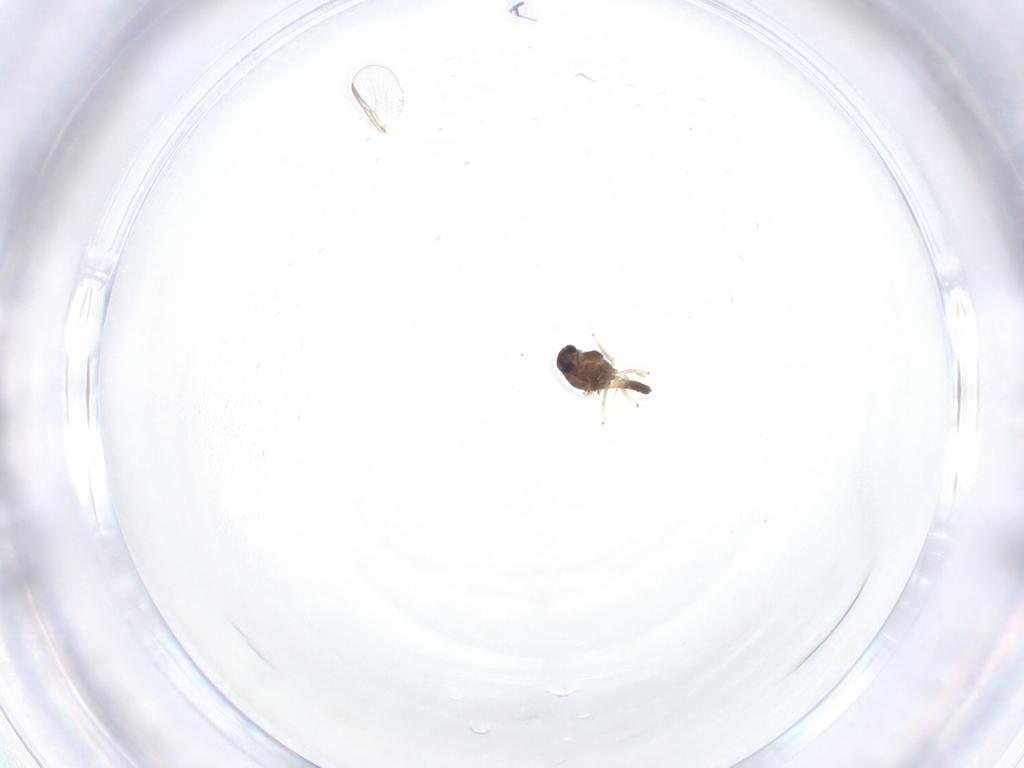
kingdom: Animalia
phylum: Arthropoda
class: Insecta
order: Diptera
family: Chironomidae
